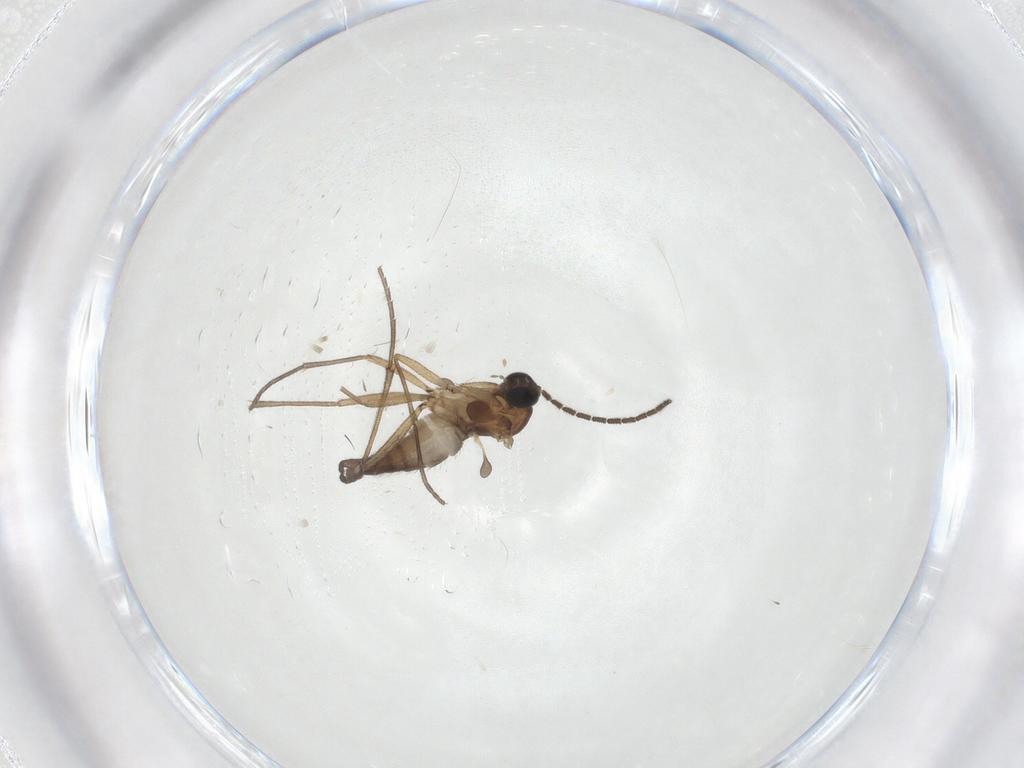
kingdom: Animalia
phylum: Arthropoda
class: Insecta
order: Diptera
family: Sciaridae
